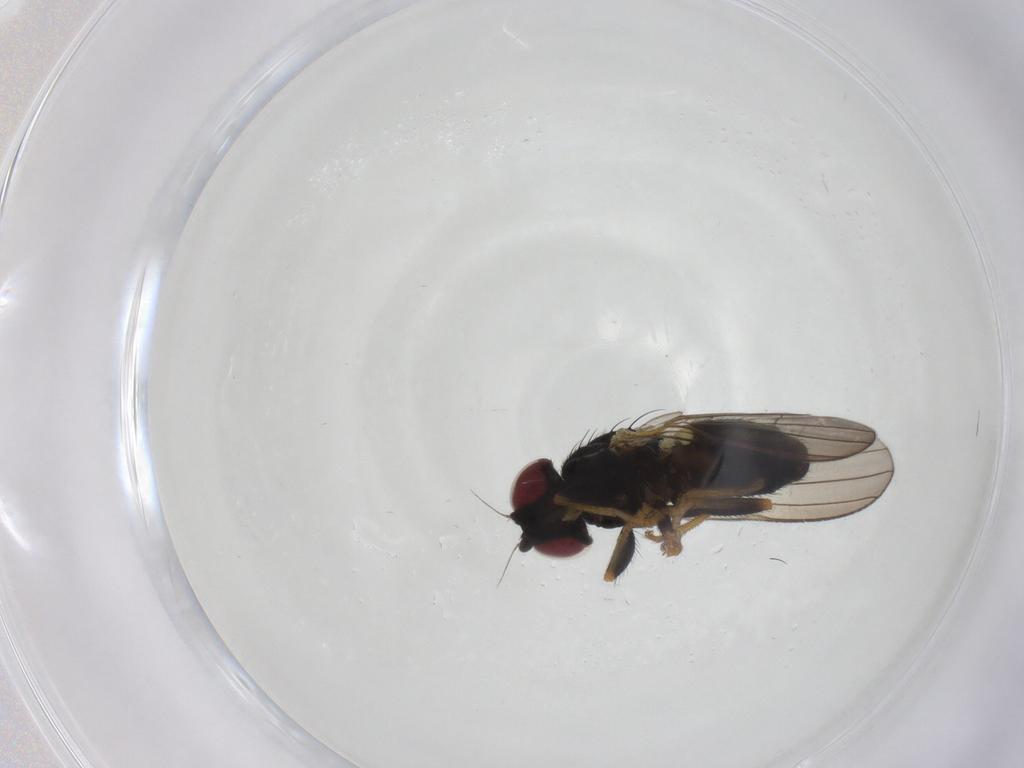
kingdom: Animalia
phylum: Arthropoda
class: Insecta
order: Diptera
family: Chamaemyiidae
